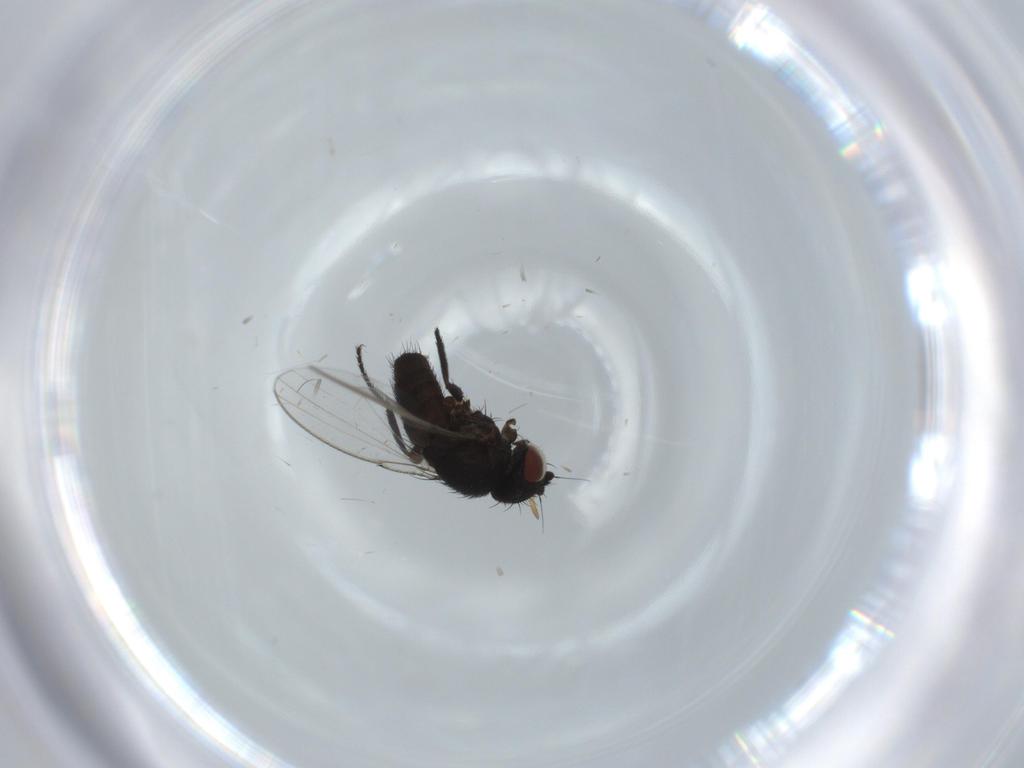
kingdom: Animalia
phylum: Arthropoda
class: Insecta
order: Diptera
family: Milichiidae
